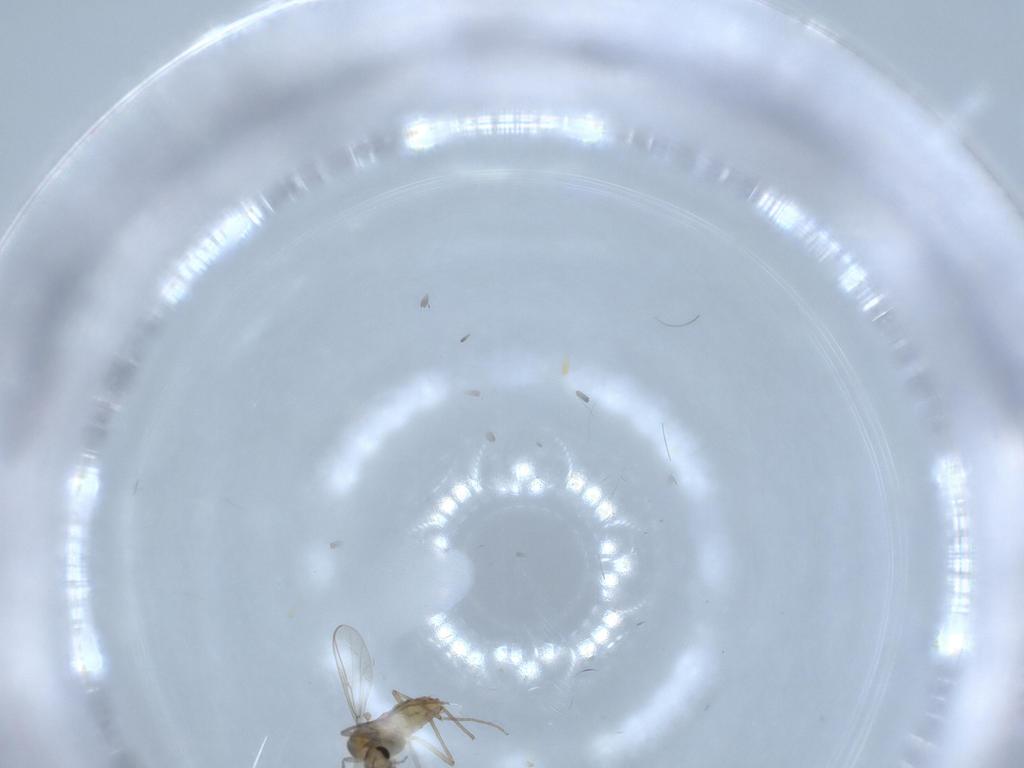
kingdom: Animalia
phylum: Arthropoda
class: Insecta
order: Diptera
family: Chironomidae
